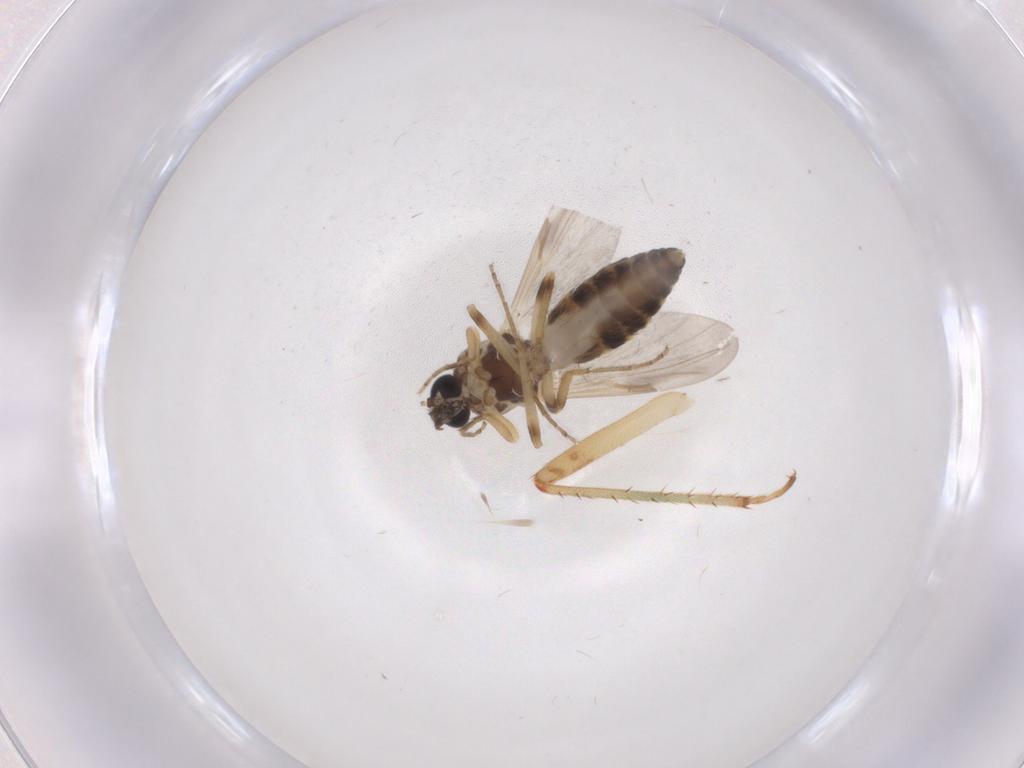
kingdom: Animalia
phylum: Arthropoda
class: Insecta
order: Diptera
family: Ceratopogonidae
